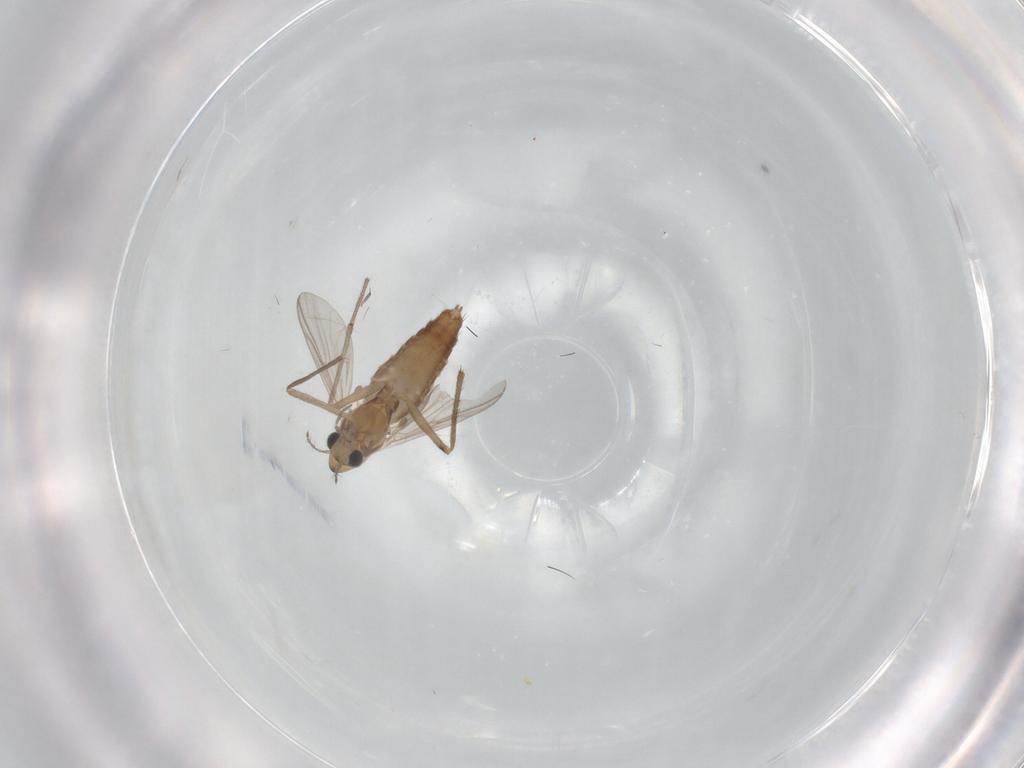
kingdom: Animalia
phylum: Arthropoda
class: Insecta
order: Diptera
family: Chironomidae
